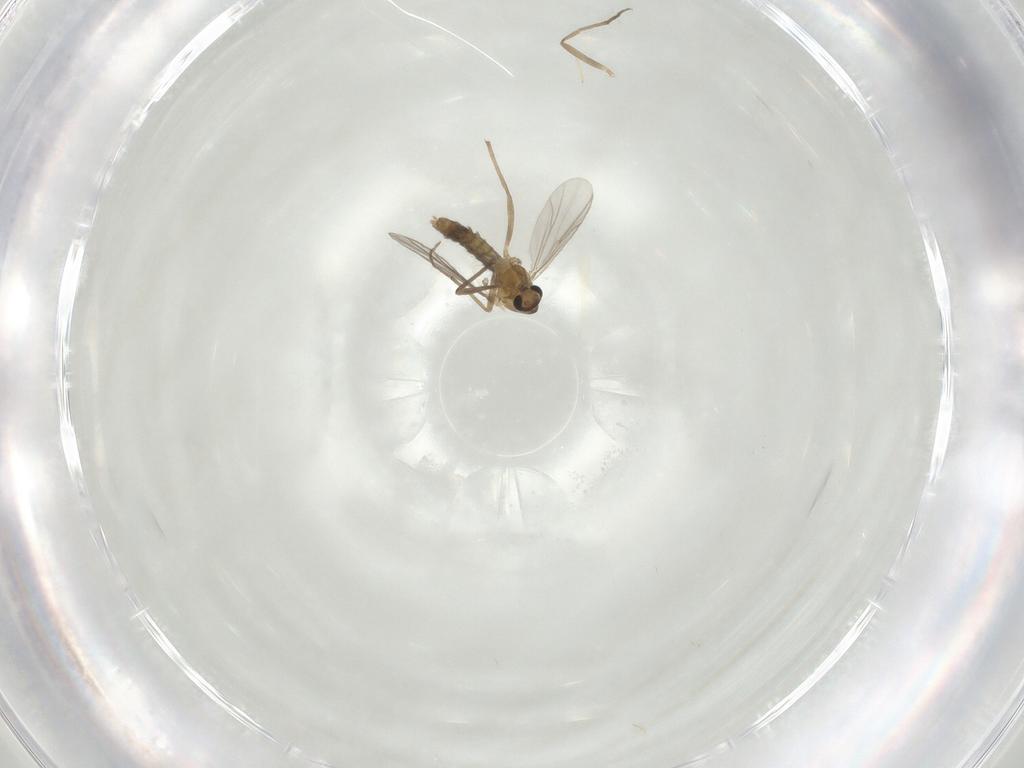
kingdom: Animalia
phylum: Arthropoda
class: Insecta
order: Diptera
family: Chironomidae
